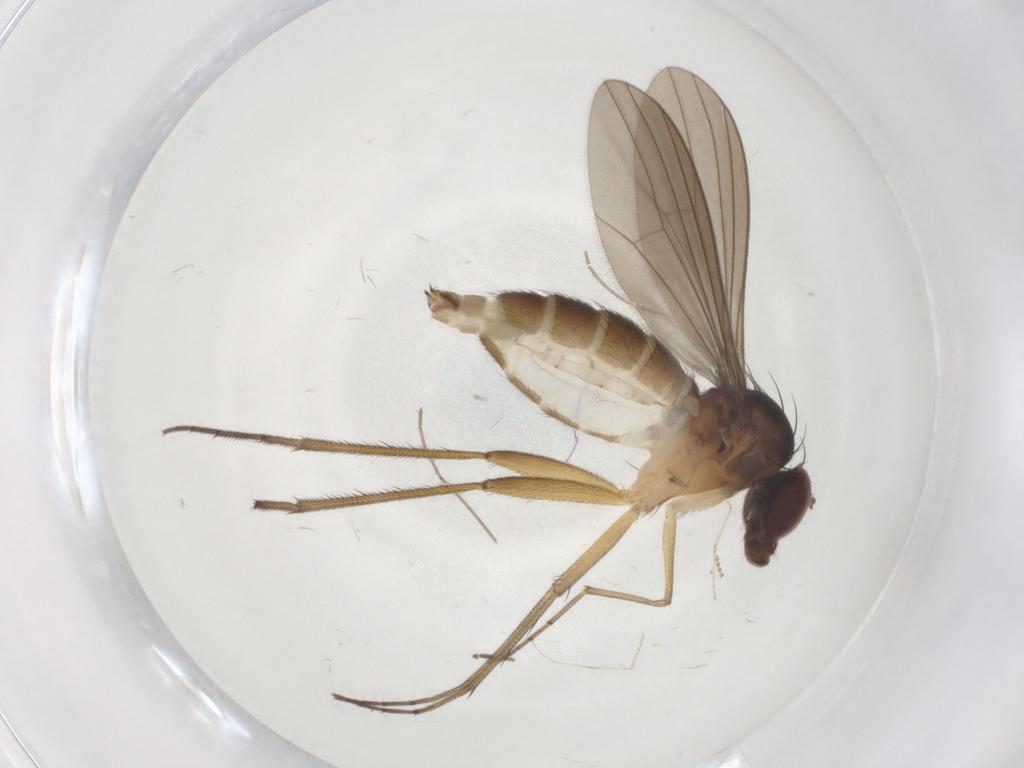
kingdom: Animalia
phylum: Arthropoda
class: Insecta
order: Diptera
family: Dolichopodidae
